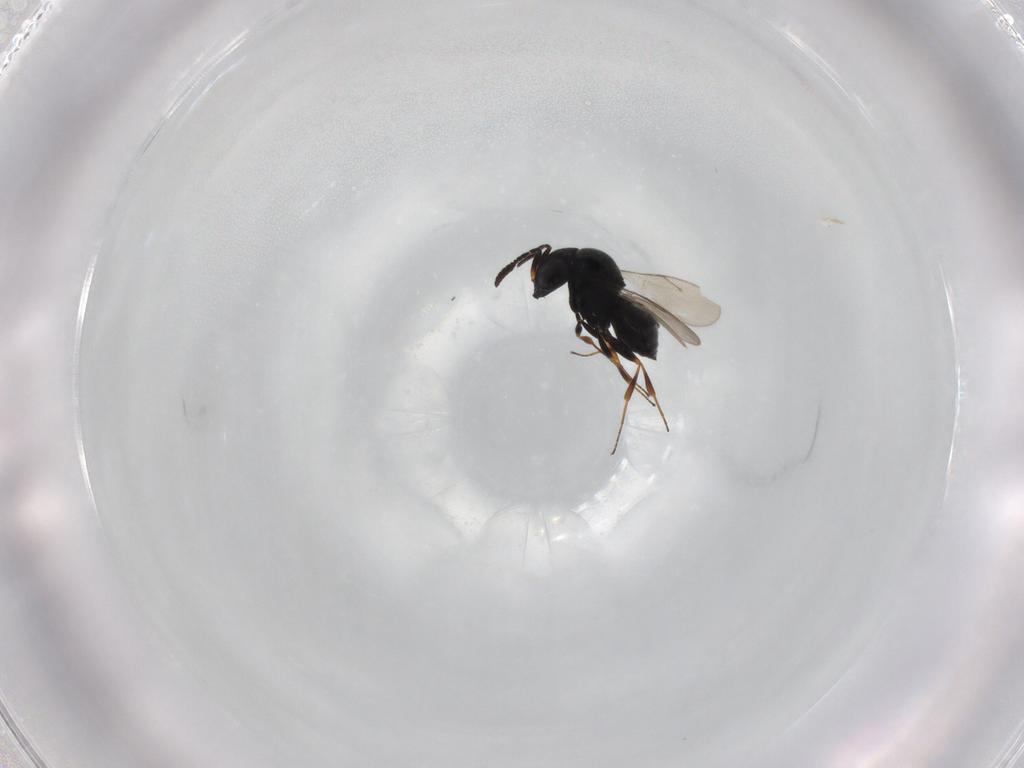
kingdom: Animalia
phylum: Arthropoda
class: Insecta
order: Hymenoptera
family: Scelionidae
